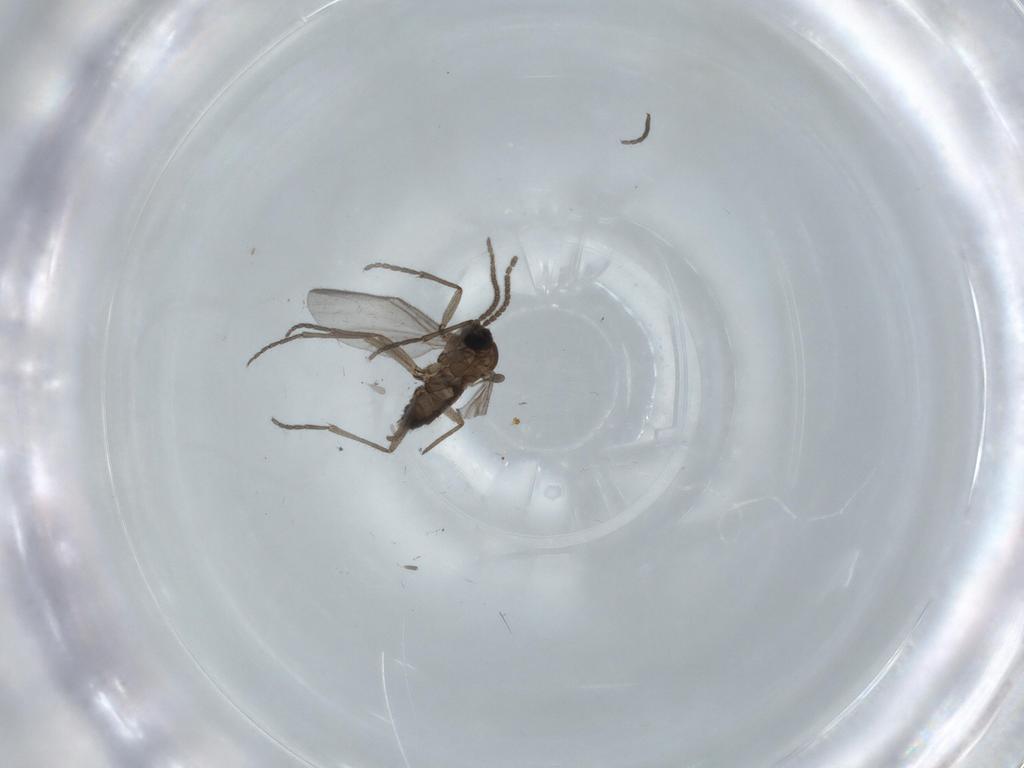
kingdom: Animalia
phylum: Arthropoda
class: Insecta
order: Diptera
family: Sciaridae
